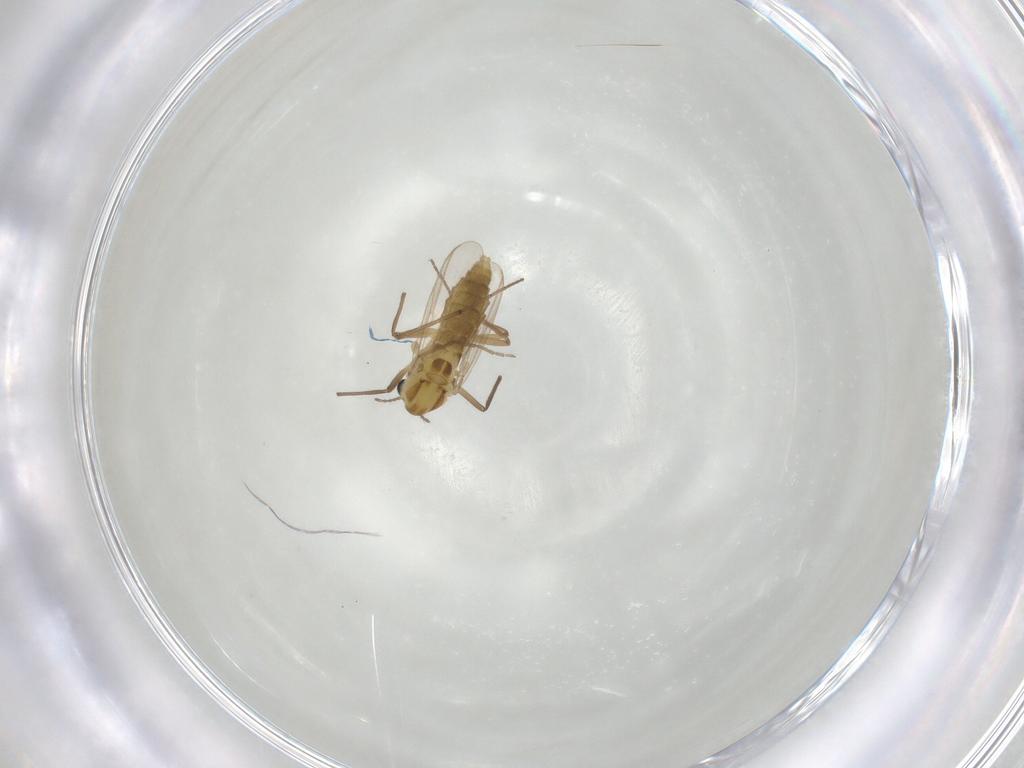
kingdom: Animalia
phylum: Arthropoda
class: Insecta
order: Diptera
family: Chironomidae
